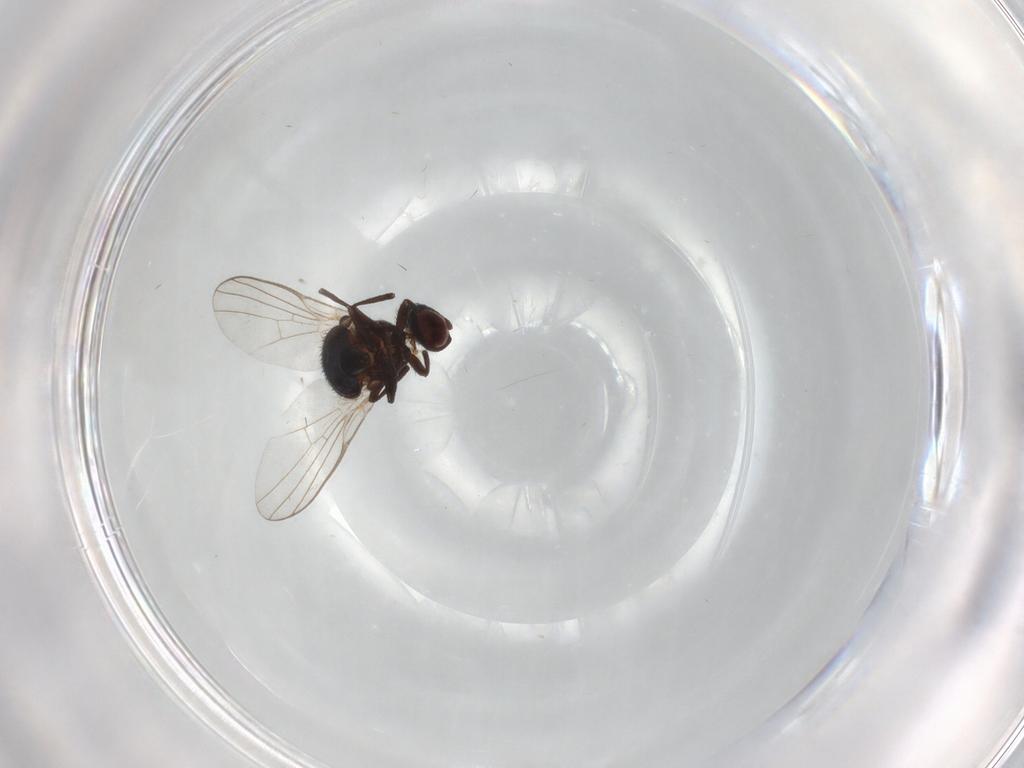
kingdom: Animalia
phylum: Arthropoda
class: Insecta
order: Diptera
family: Agromyzidae
